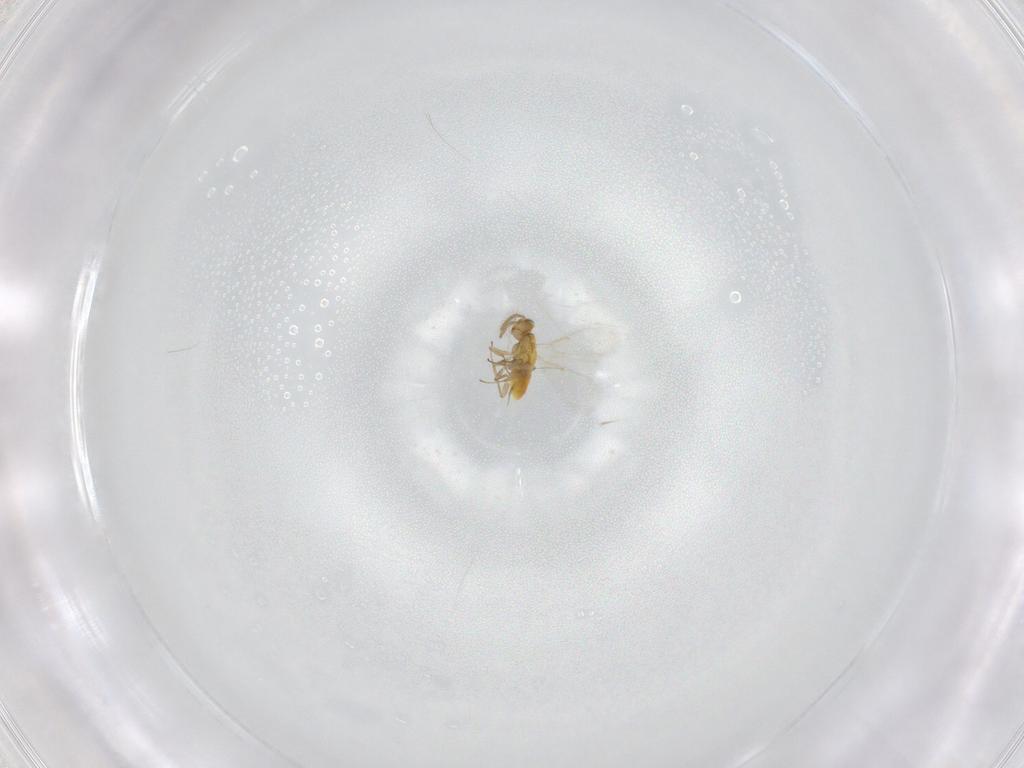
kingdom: Animalia
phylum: Arthropoda
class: Insecta
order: Hymenoptera
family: Aphelinidae
